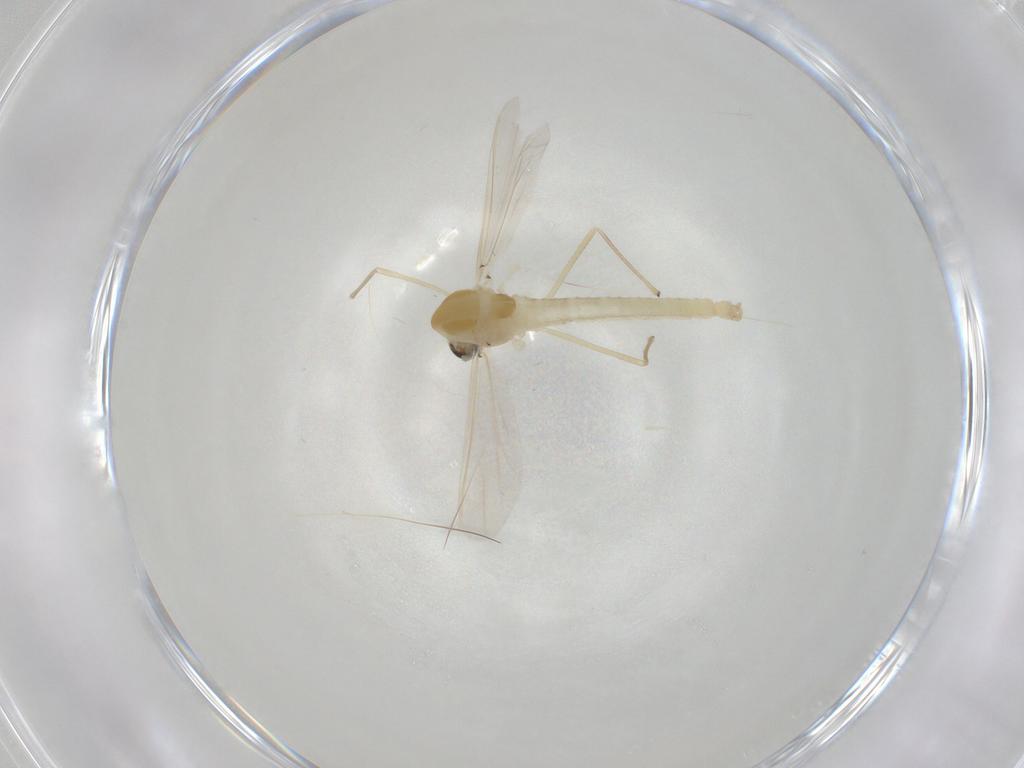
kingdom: Animalia
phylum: Arthropoda
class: Insecta
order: Diptera
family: Chironomidae
